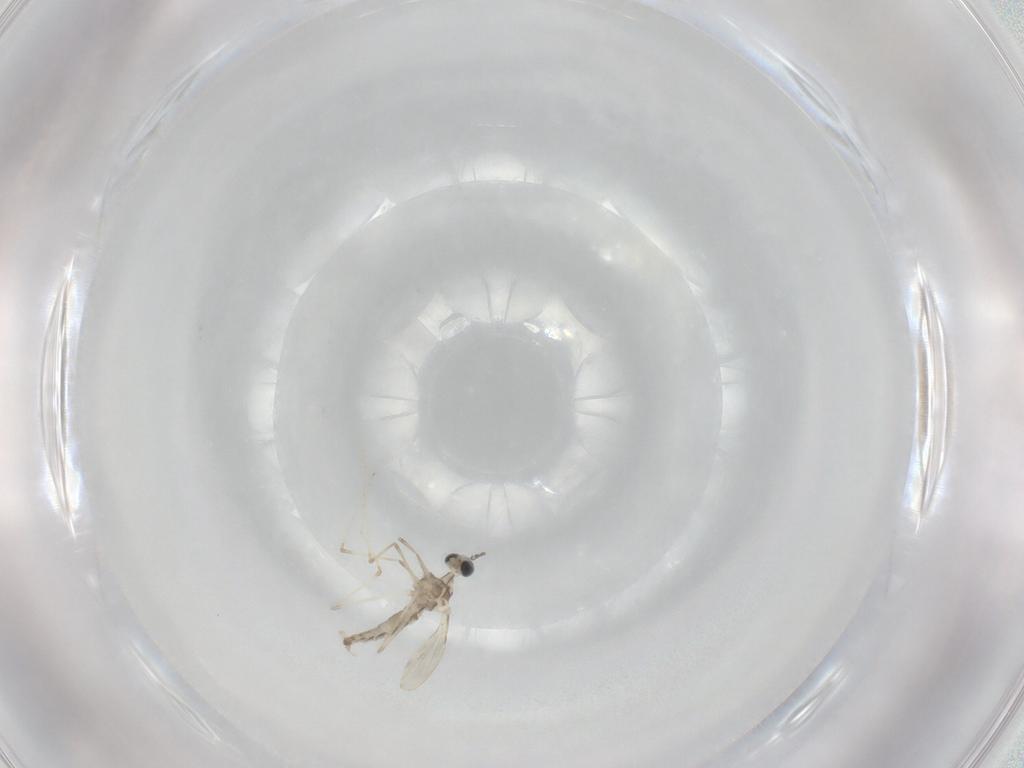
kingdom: Animalia
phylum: Arthropoda
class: Insecta
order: Diptera
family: Cecidomyiidae
